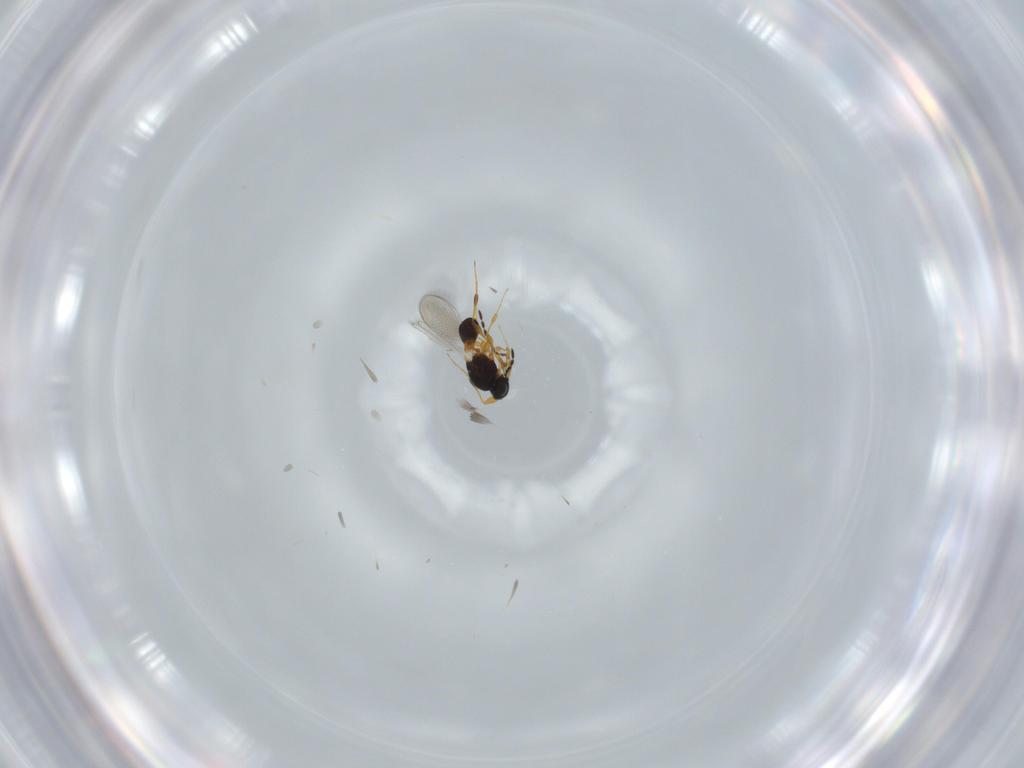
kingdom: Animalia
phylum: Arthropoda
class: Insecta
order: Hymenoptera
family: Platygastridae
